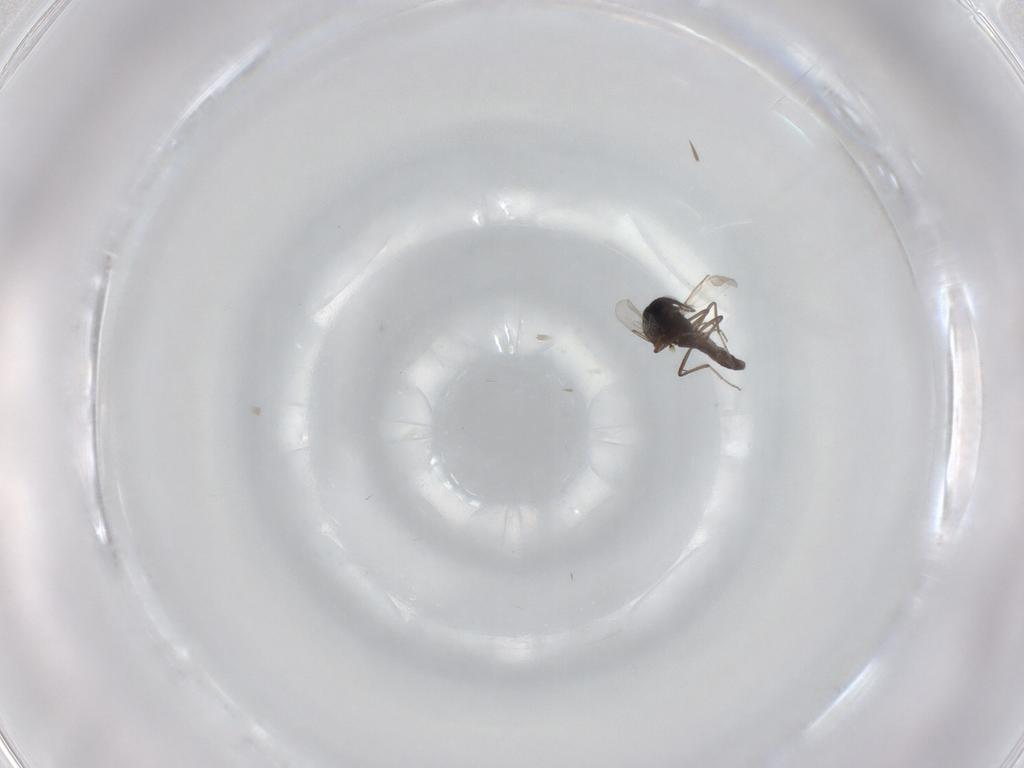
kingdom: Animalia
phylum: Arthropoda
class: Insecta
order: Diptera
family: Ceratopogonidae
